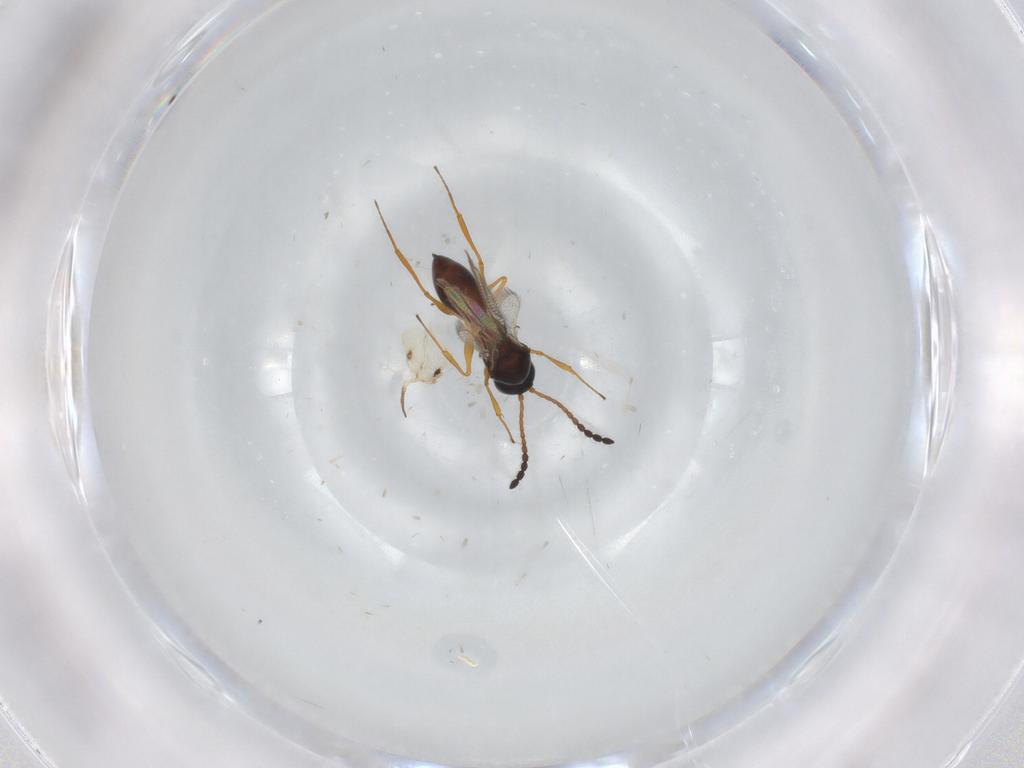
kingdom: Animalia
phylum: Arthropoda
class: Insecta
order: Hymenoptera
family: Figitidae
